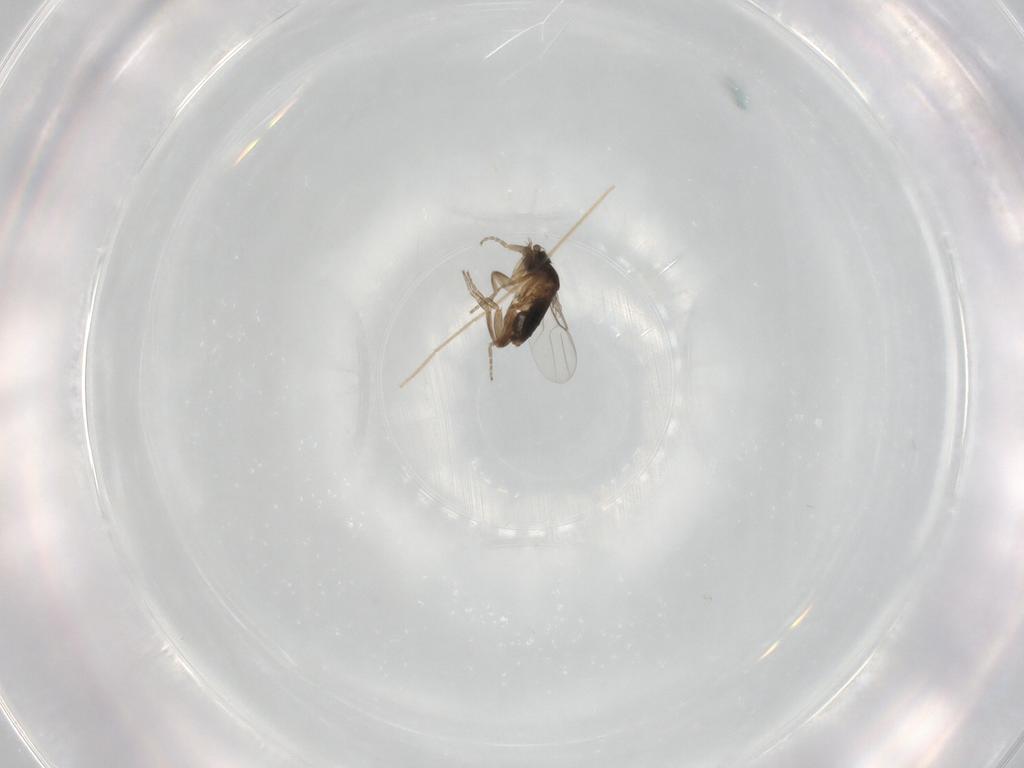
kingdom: Animalia
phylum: Arthropoda
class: Insecta
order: Diptera
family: Phoridae
